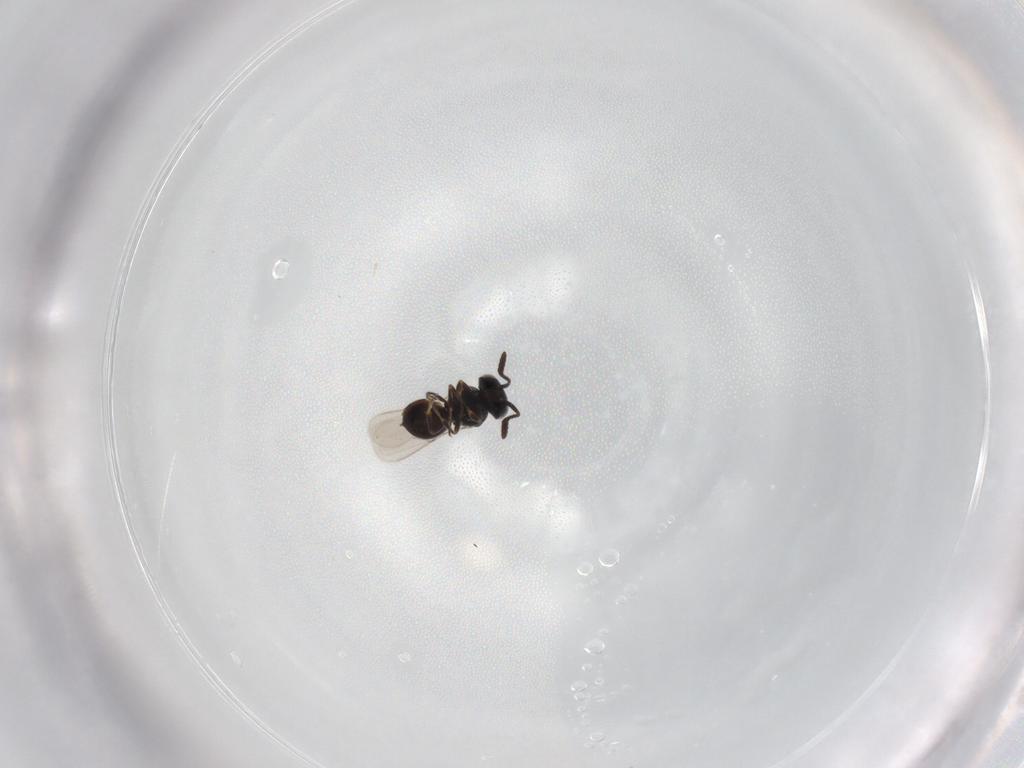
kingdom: Animalia
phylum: Arthropoda
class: Insecta
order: Hymenoptera
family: Scelionidae
